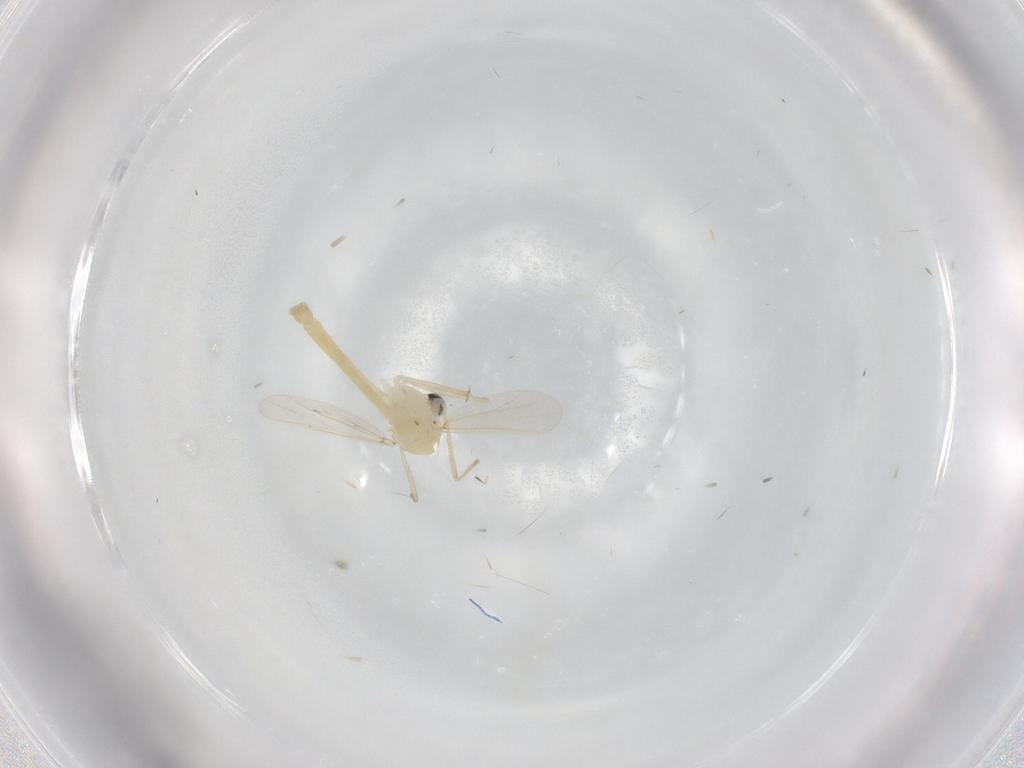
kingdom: Animalia
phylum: Arthropoda
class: Insecta
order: Diptera
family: Chironomidae
